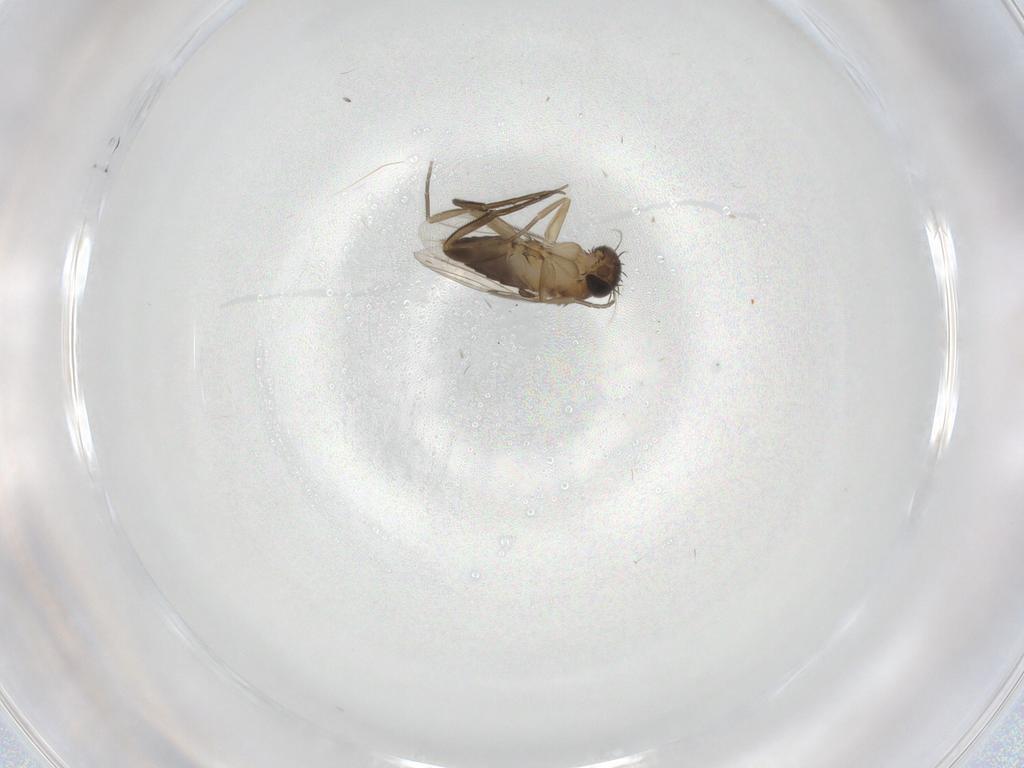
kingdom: Animalia
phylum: Arthropoda
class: Insecta
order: Diptera
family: Phoridae
